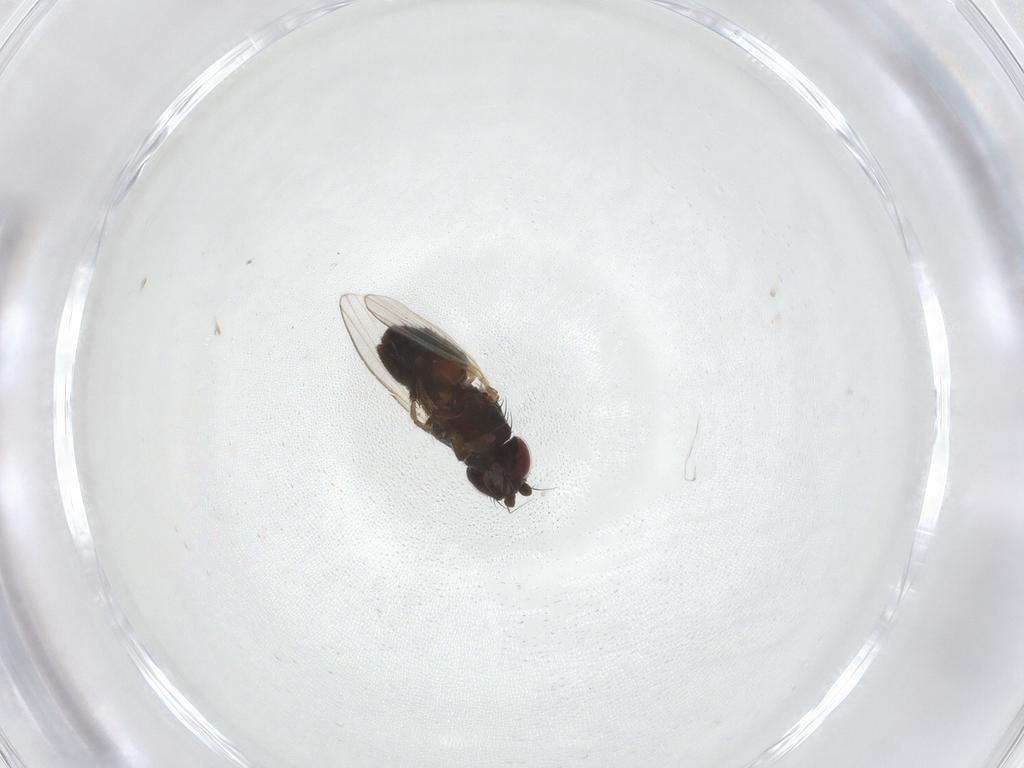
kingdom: Animalia
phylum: Arthropoda
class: Insecta
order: Diptera
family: Milichiidae
